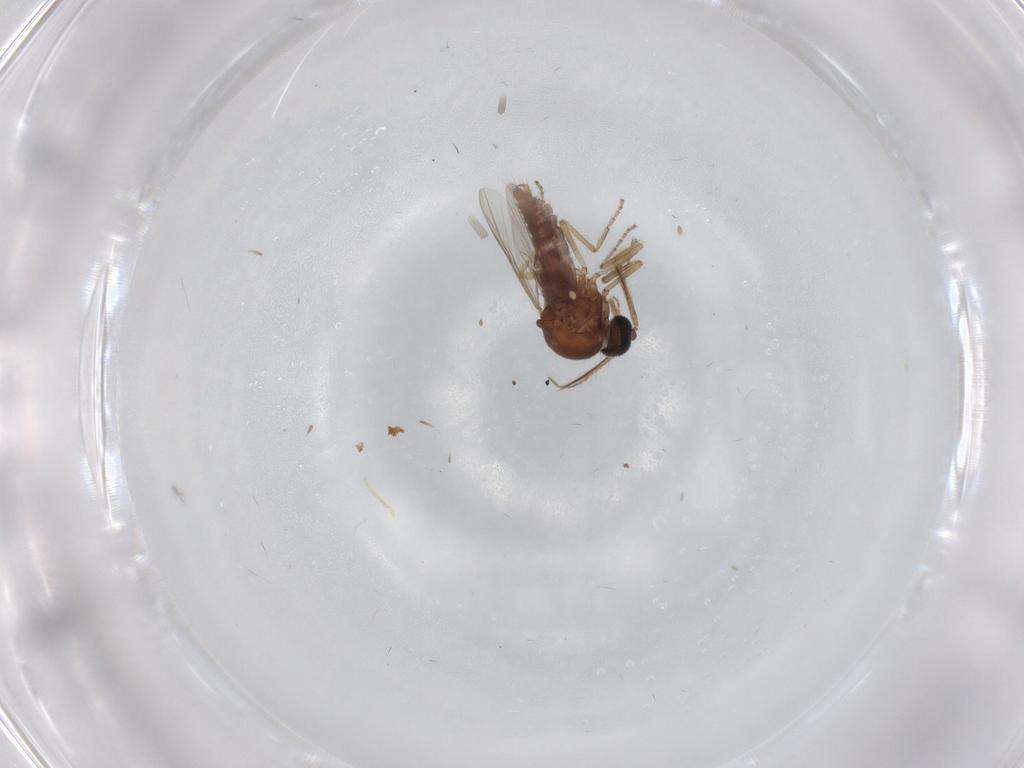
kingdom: Animalia
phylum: Arthropoda
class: Insecta
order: Diptera
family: Ceratopogonidae
